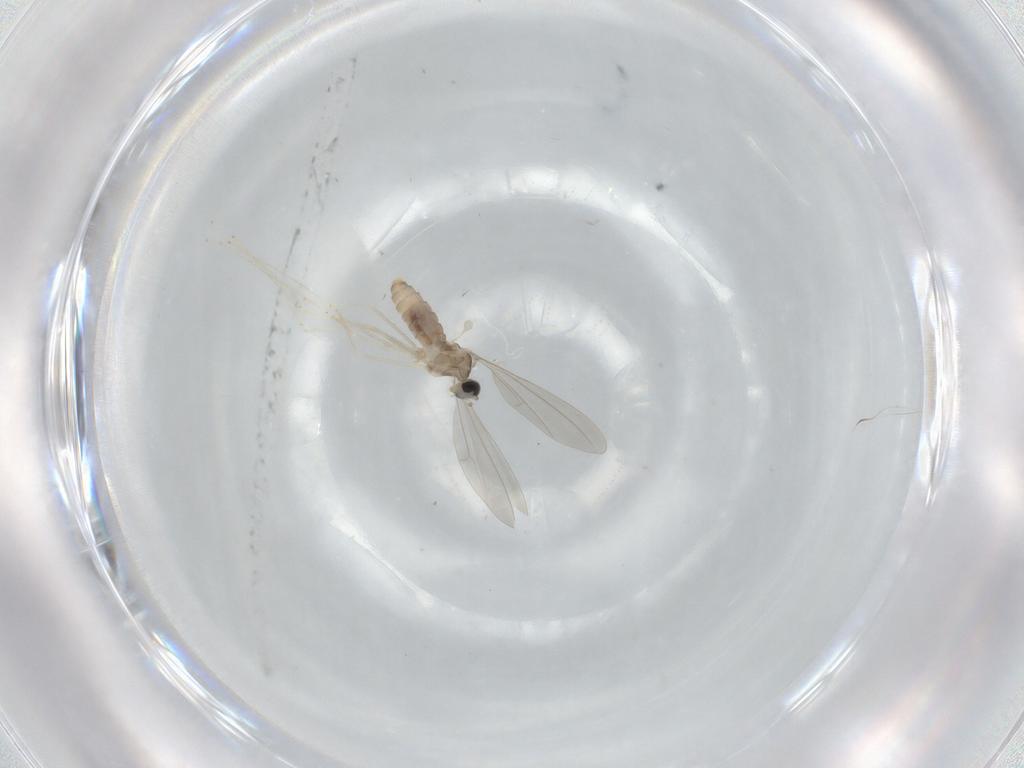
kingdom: Animalia
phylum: Arthropoda
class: Insecta
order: Diptera
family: Cecidomyiidae
